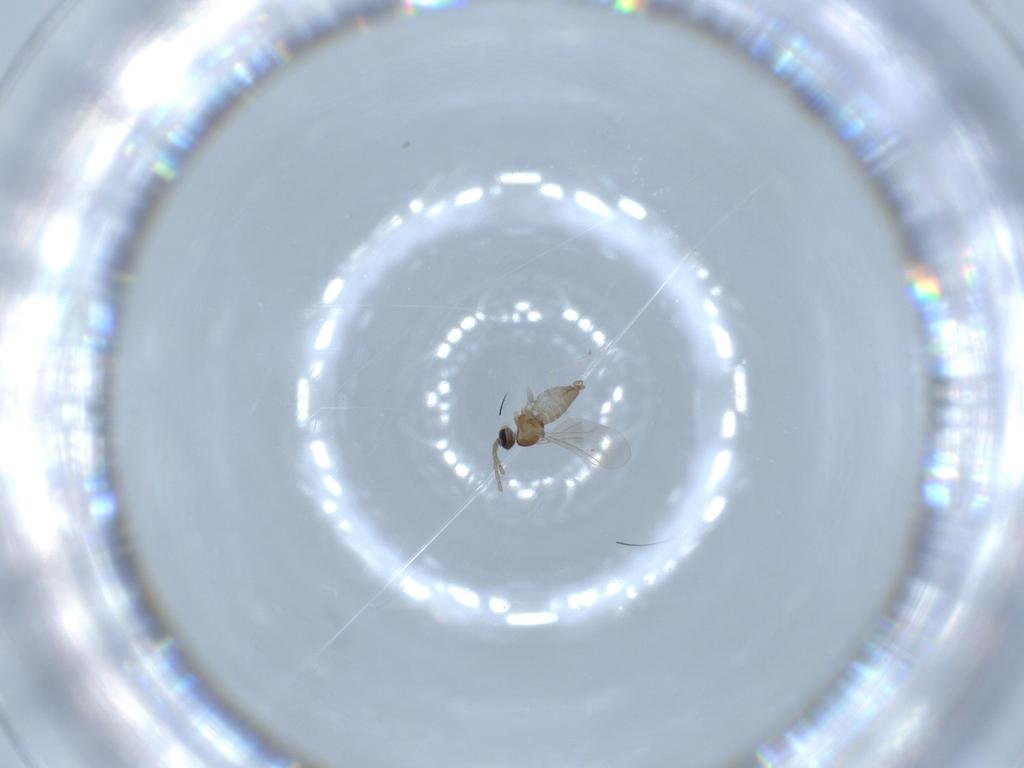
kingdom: Animalia
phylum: Arthropoda
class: Insecta
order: Diptera
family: Cecidomyiidae
